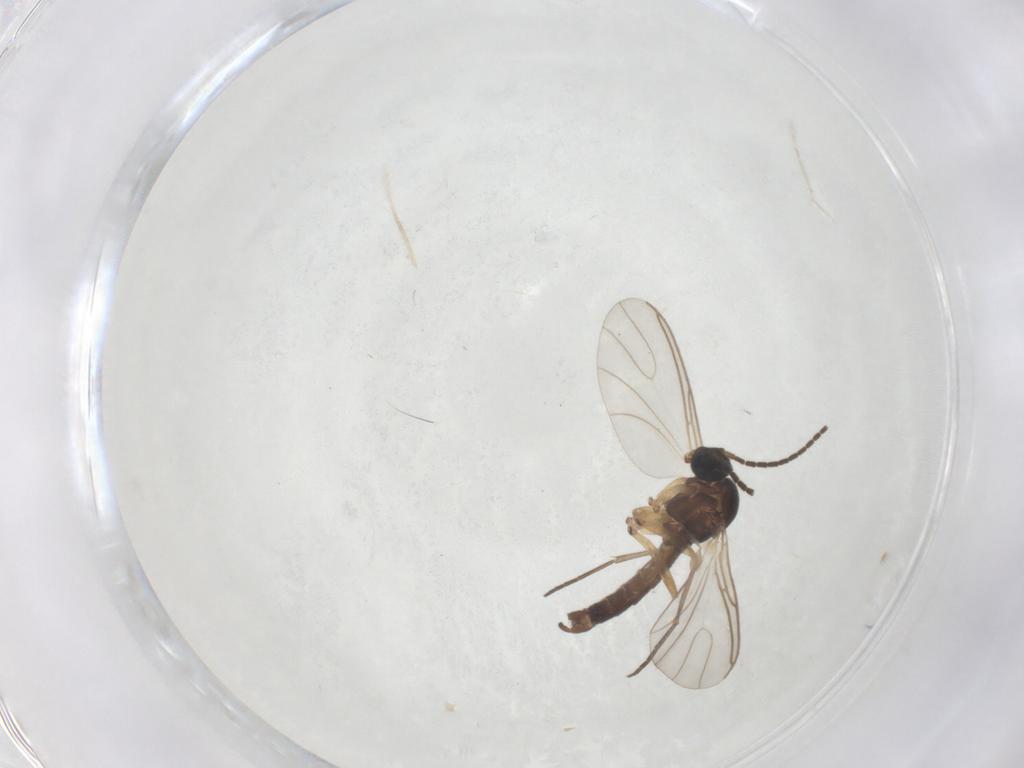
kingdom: Animalia
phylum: Arthropoda
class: Insecta
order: Diptera
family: Sciaridae
